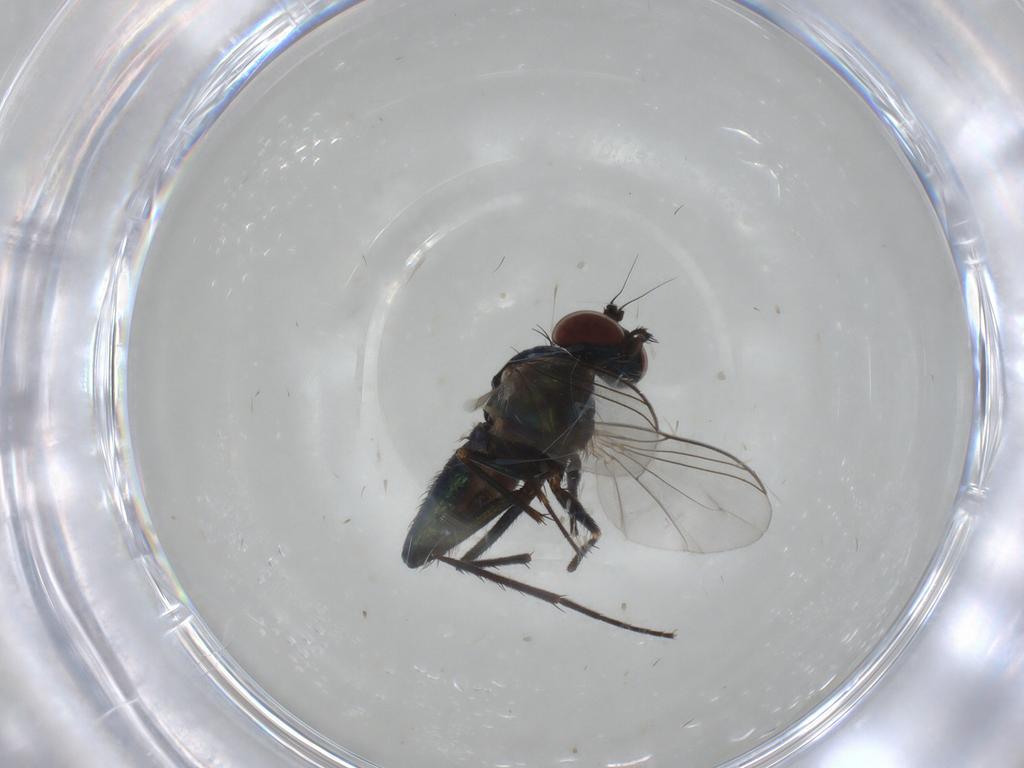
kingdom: Animalia
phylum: Arthropoda
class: Insecta
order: Diptera
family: Ceratopogonidae
